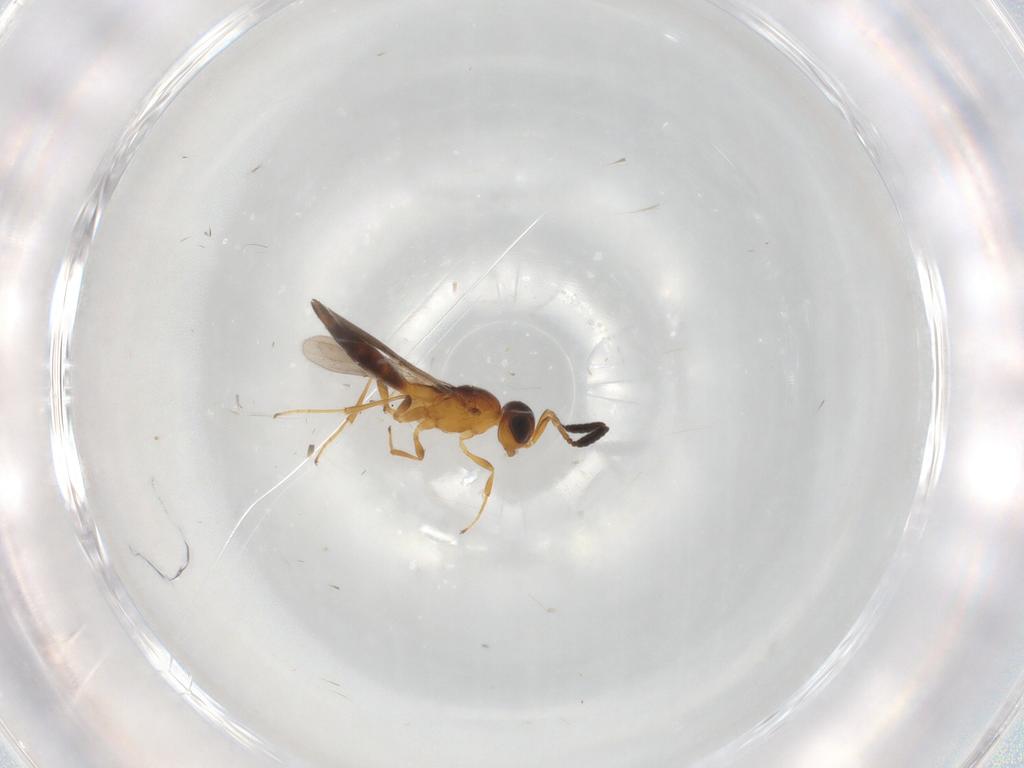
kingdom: Animalia
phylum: Arthropoda
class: Insecta
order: Hymenoptera
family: Scelionidae
